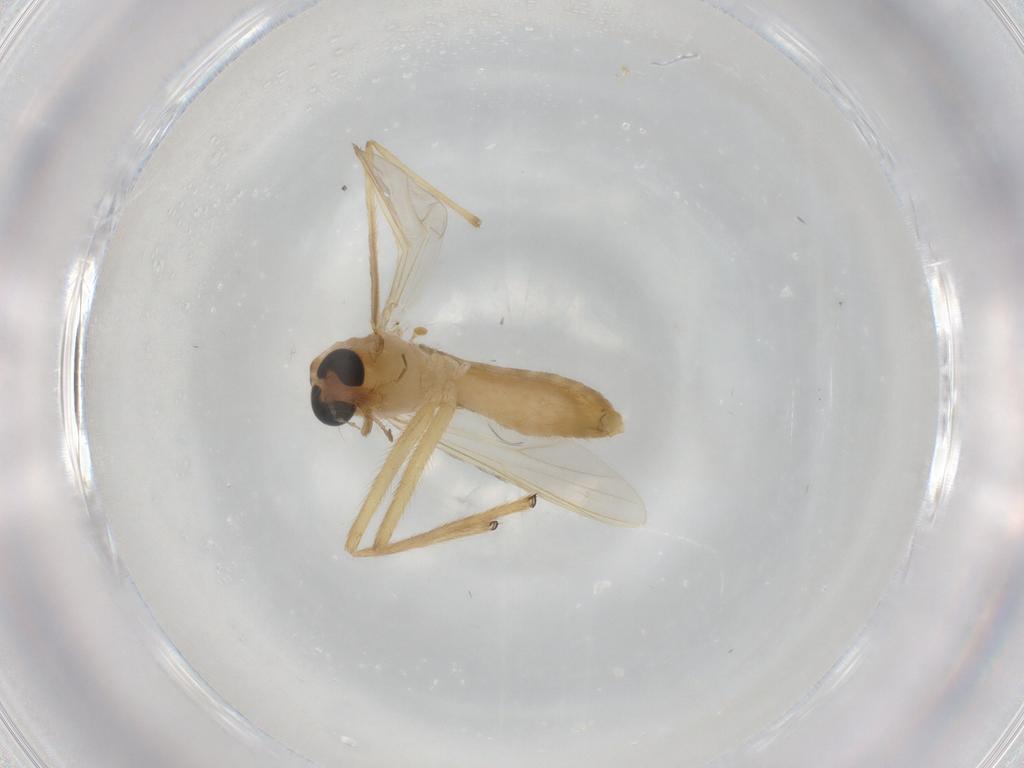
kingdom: Animalia
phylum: Arthropoda
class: Insecta
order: Diptera
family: Chironomidae
